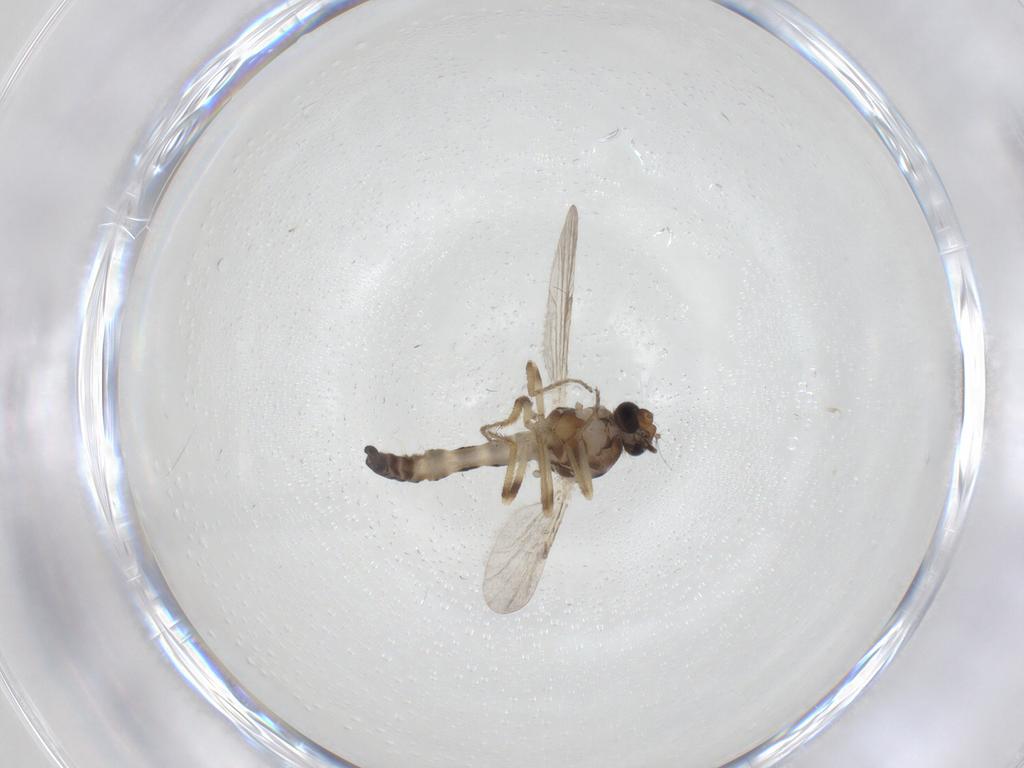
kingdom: Animalia
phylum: Arthropoda
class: Insecta
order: Diptera
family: Ceratopogonidae
